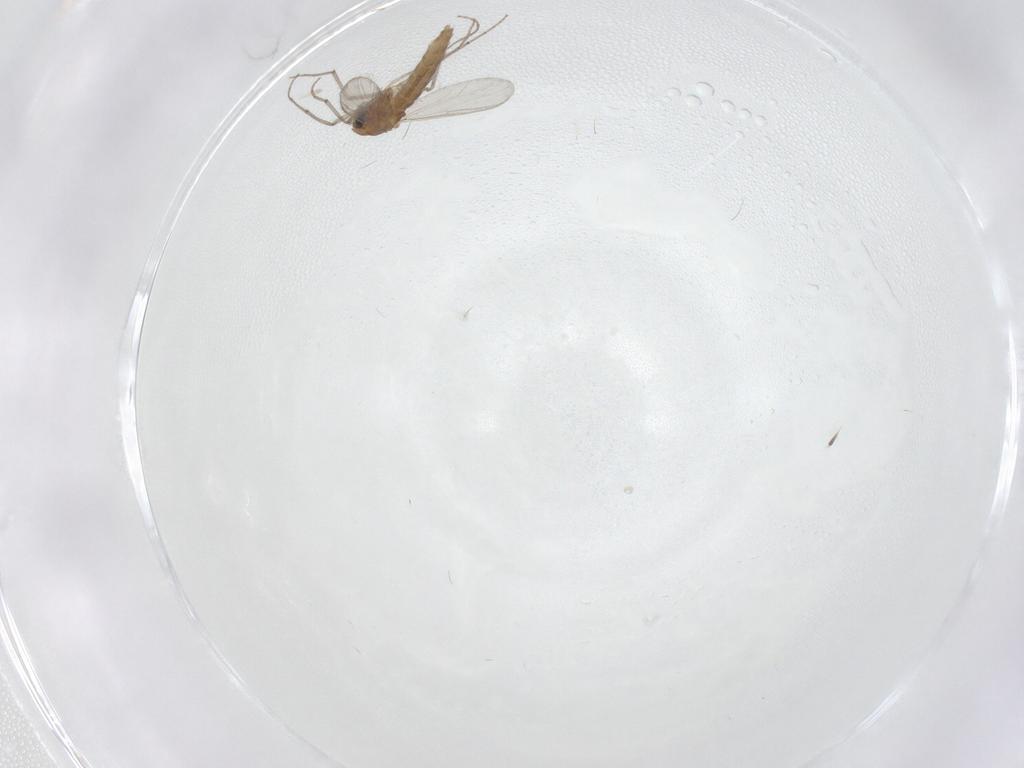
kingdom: Animalia
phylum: Arthropoda
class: Insecta
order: Diptera
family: Chironomidae
